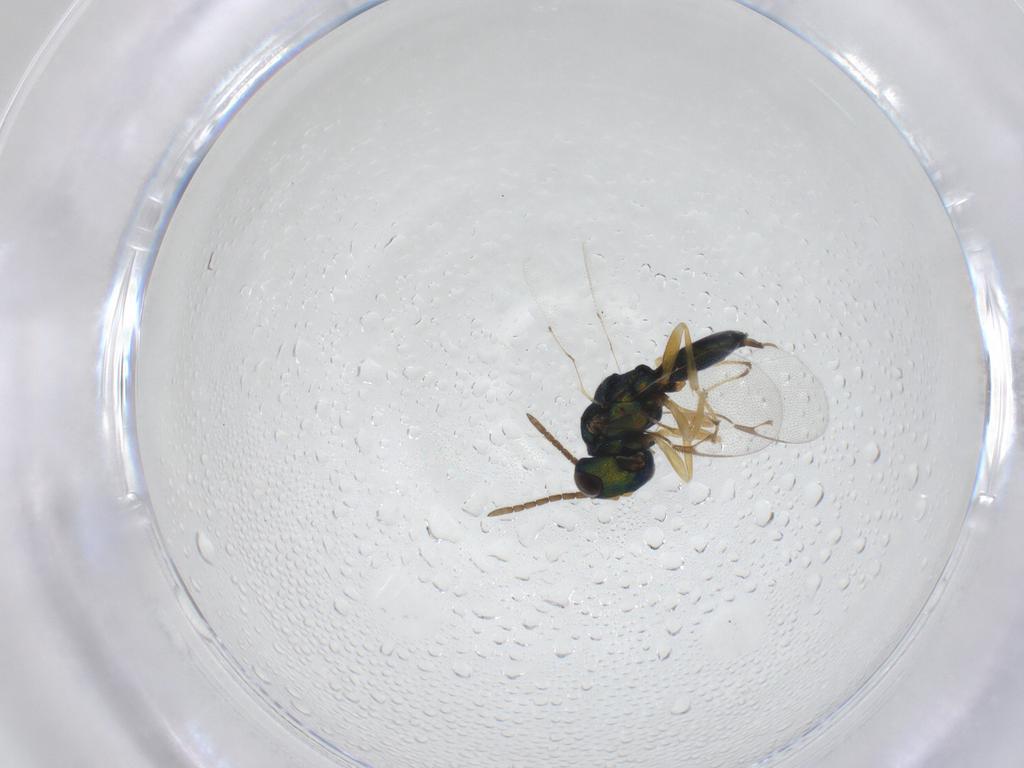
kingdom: Animalia
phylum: Arthropoda
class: Insecta
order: Hymenoptera
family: Pteromalidae
